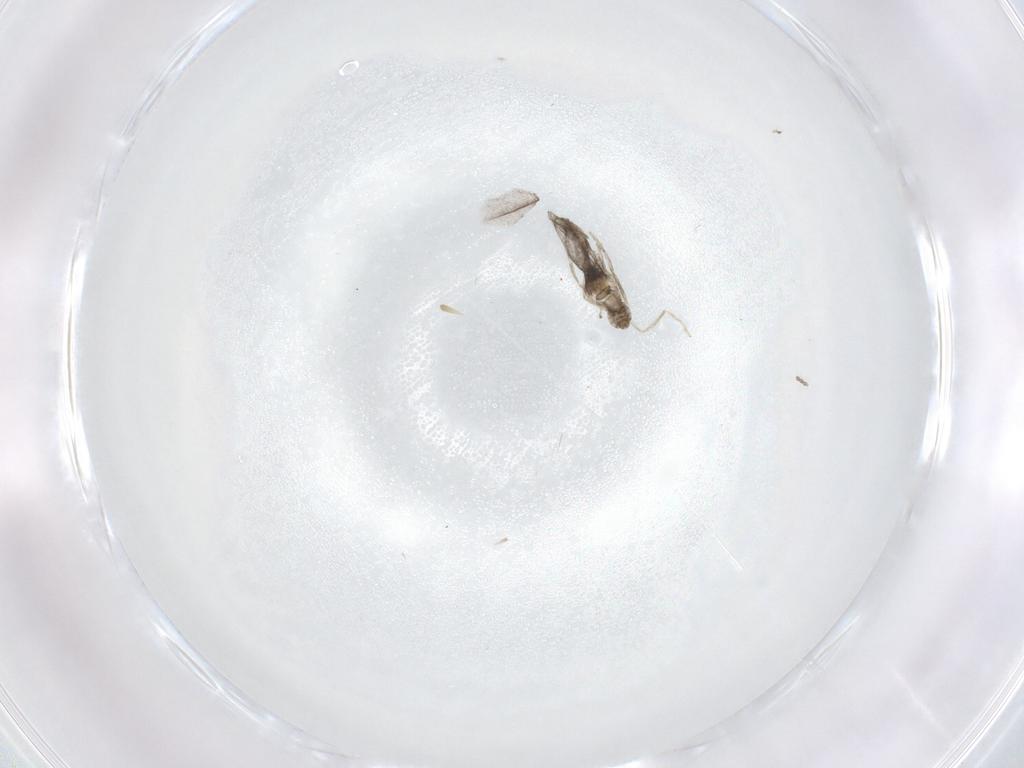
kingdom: Animalia
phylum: Arthropoda
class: Insecta
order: Diptera
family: Cecidomyiidae
